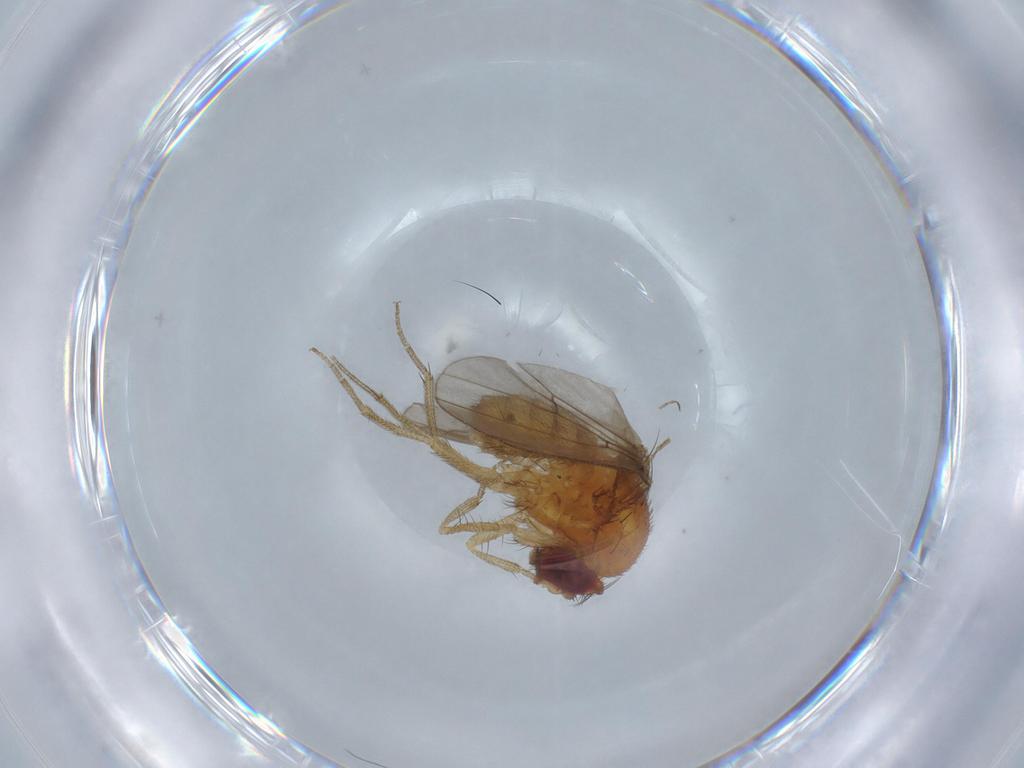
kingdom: Animalia
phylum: Arthropoda
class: Insecta
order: Diptera
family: Drosophilidae
